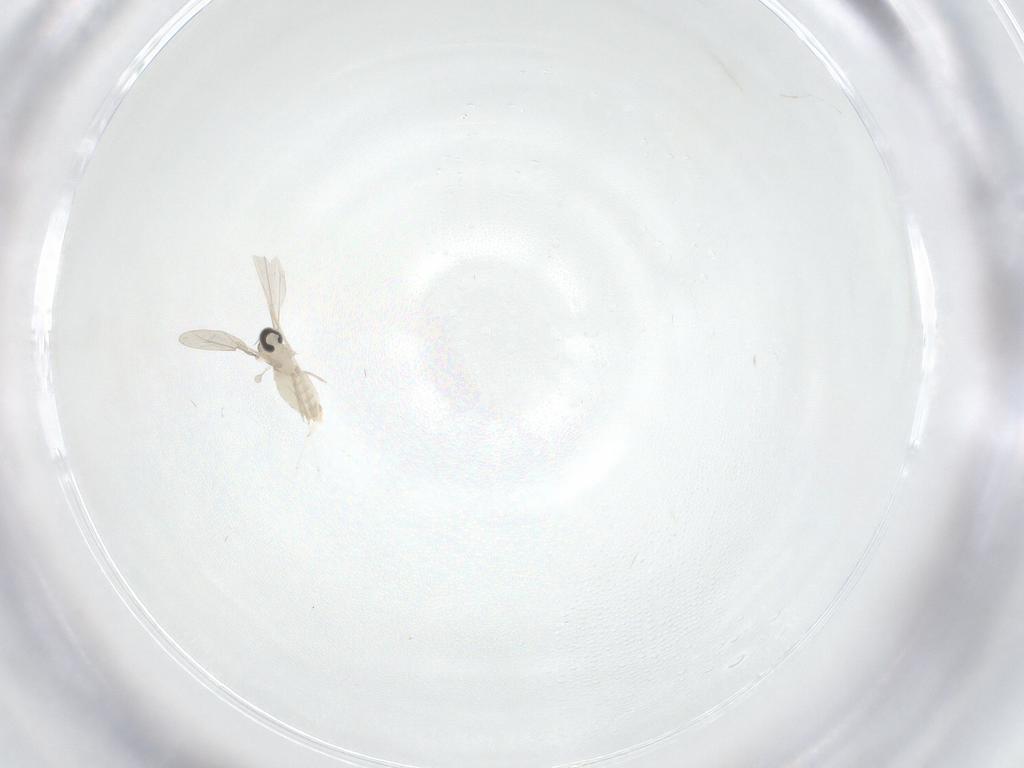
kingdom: Animalia
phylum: Arthropoda
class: Insecta
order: Diptera
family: Cecidomyiidae
